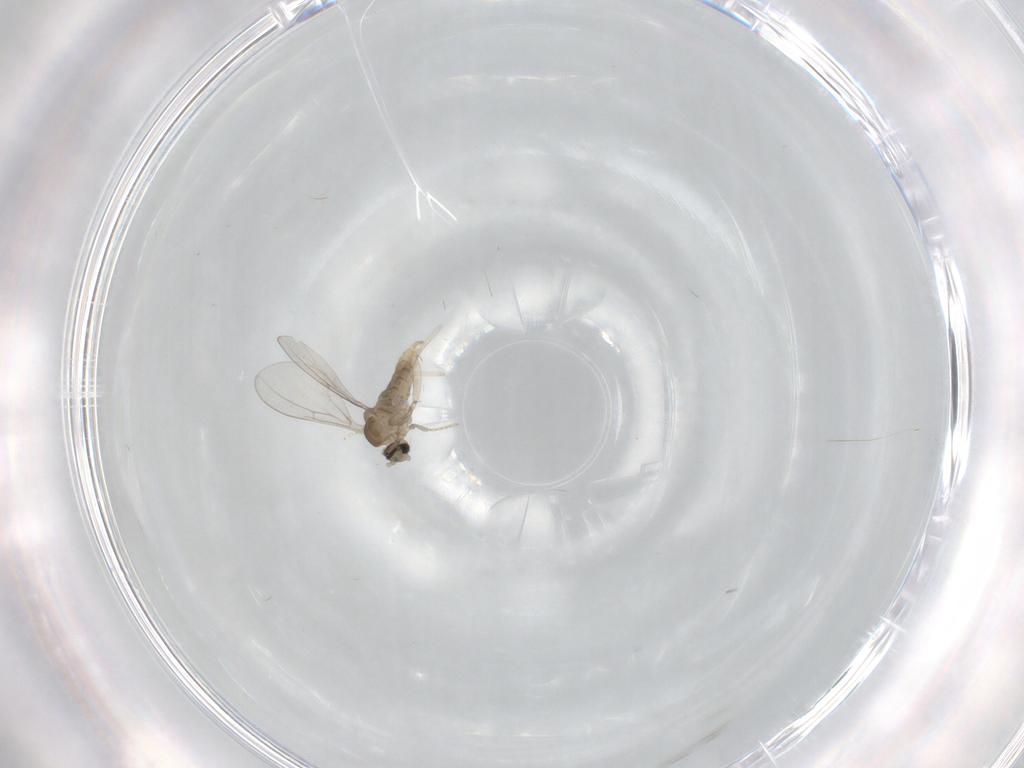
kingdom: Animalia
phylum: Arthropoda
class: Insecta
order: Diptera
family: Cecidomyiidae
